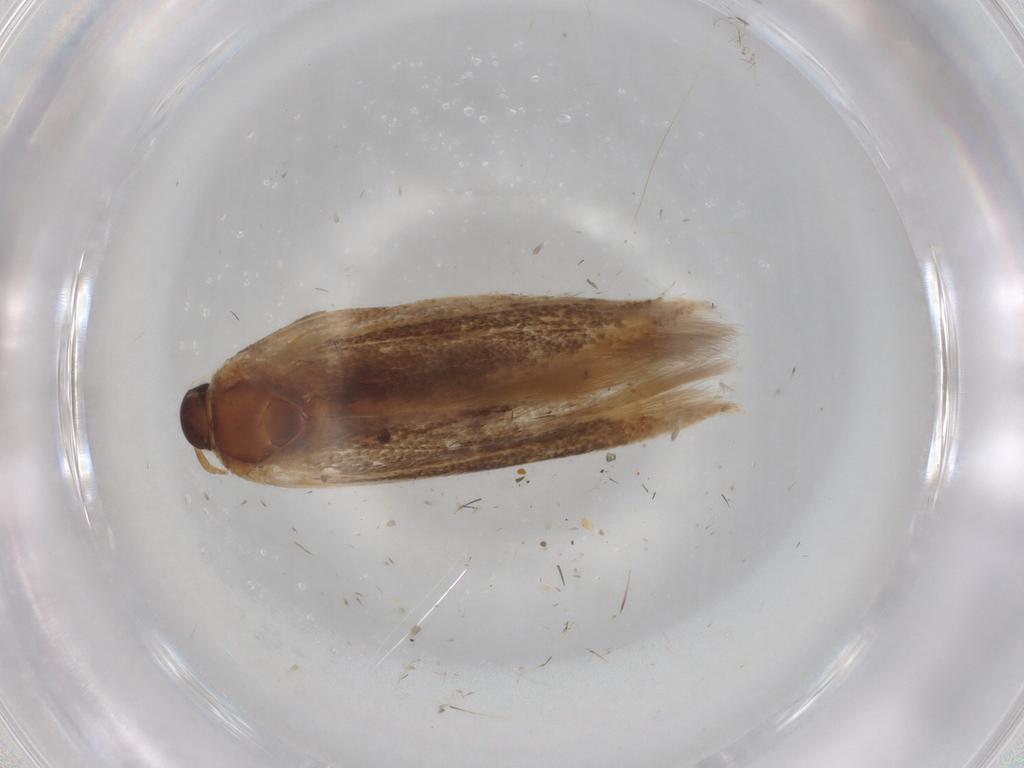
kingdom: Animalia
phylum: Arthropoda
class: Insecta
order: Lepidoptera
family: Scythrididae
